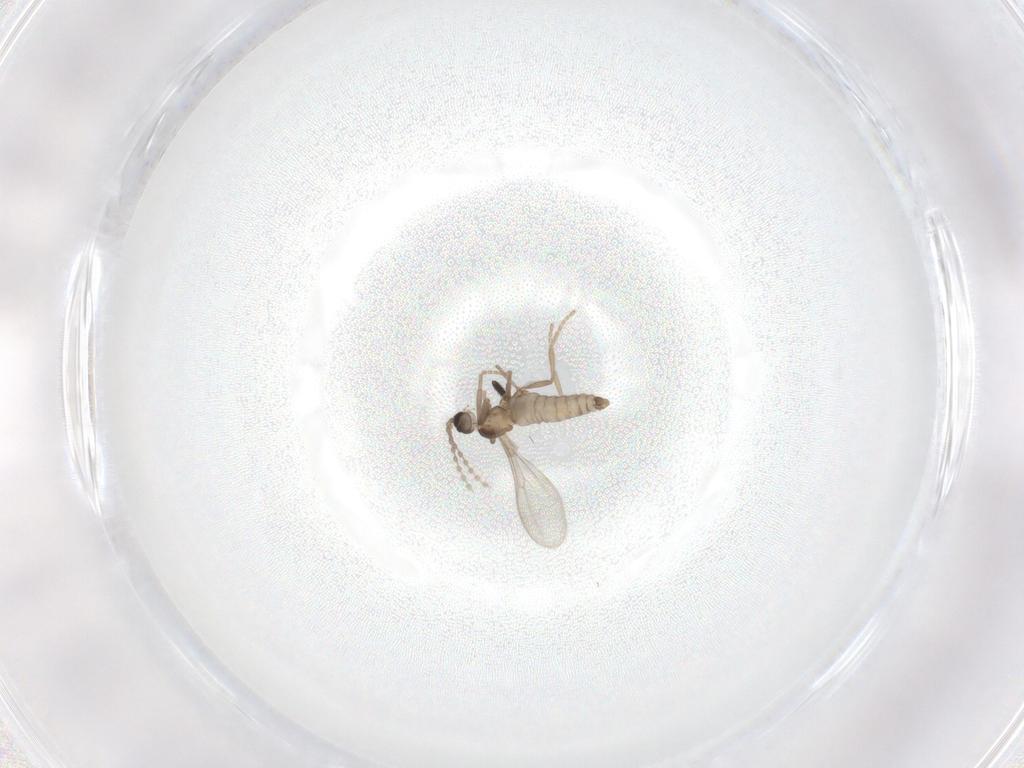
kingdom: Animalia
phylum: Arthropoda
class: Insecta
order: Diptera
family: Sciaridae
